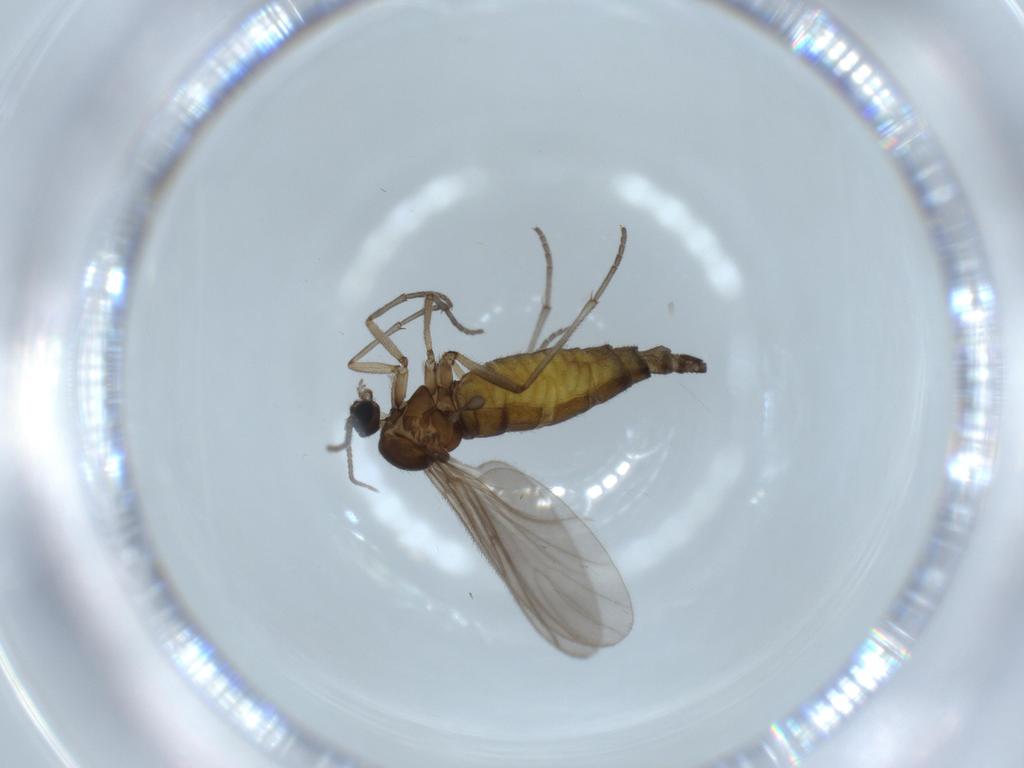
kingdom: Animalia
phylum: Arthropoda
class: Insecta
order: Diptera
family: Sciaridae
